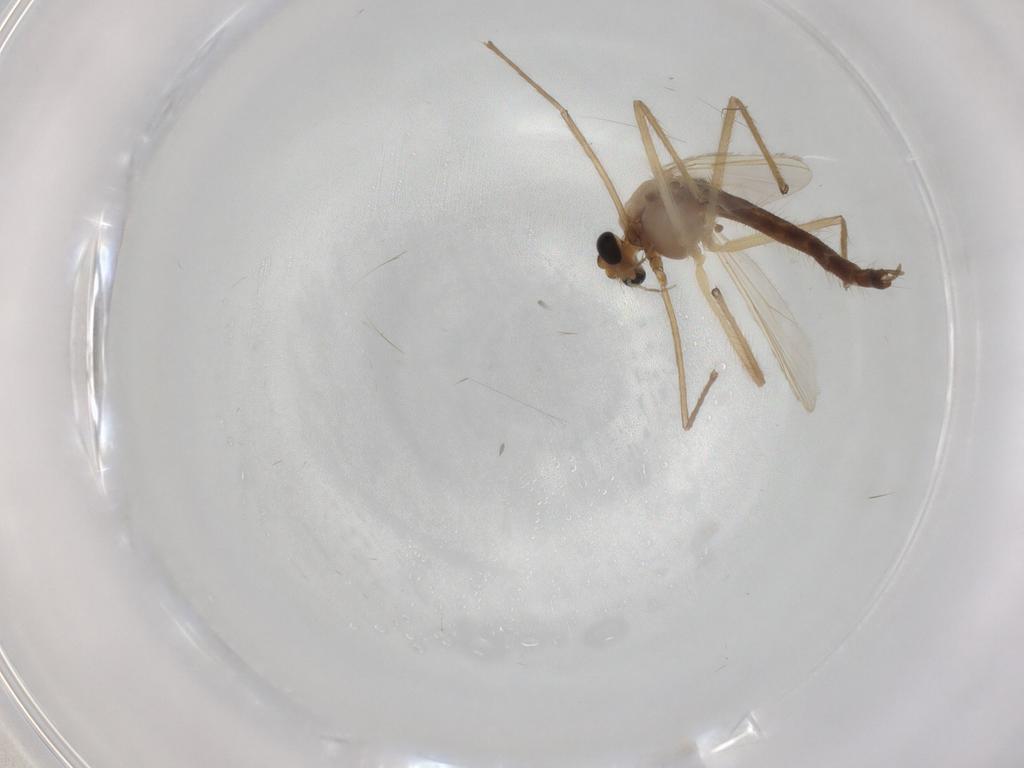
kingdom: Animalia
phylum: Arthropoda
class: Insecta
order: Diptera
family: Chironomidae
